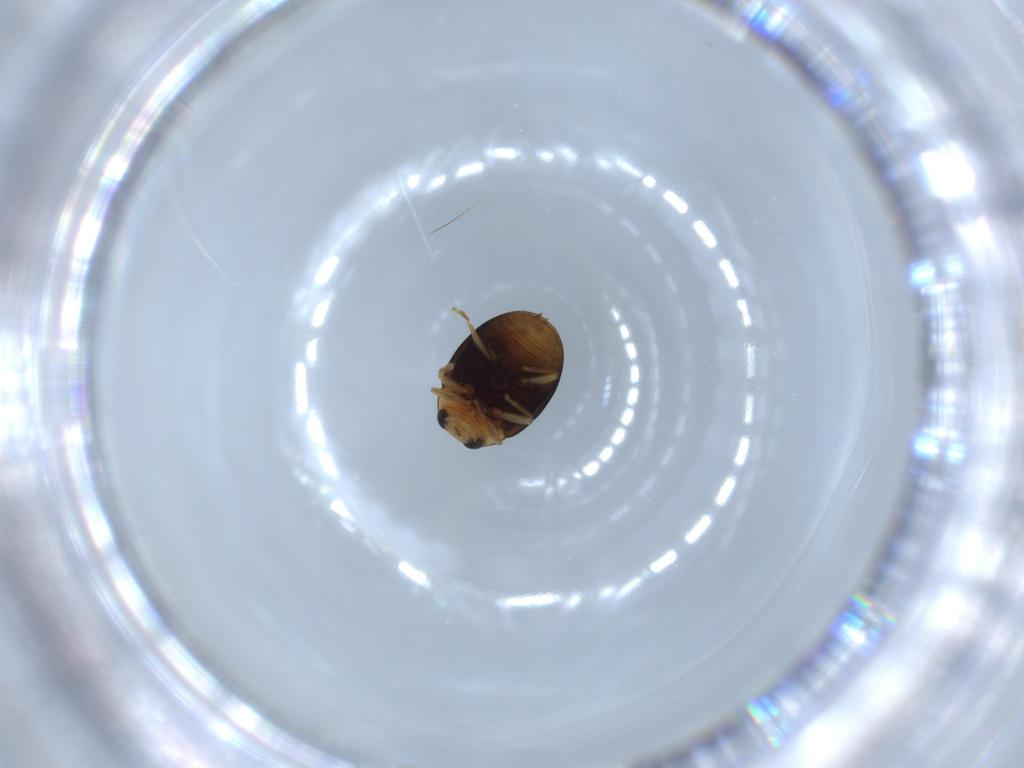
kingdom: Animalia
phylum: Arthropoda
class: Insecta
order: Coleoptera
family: Coccinellidae
